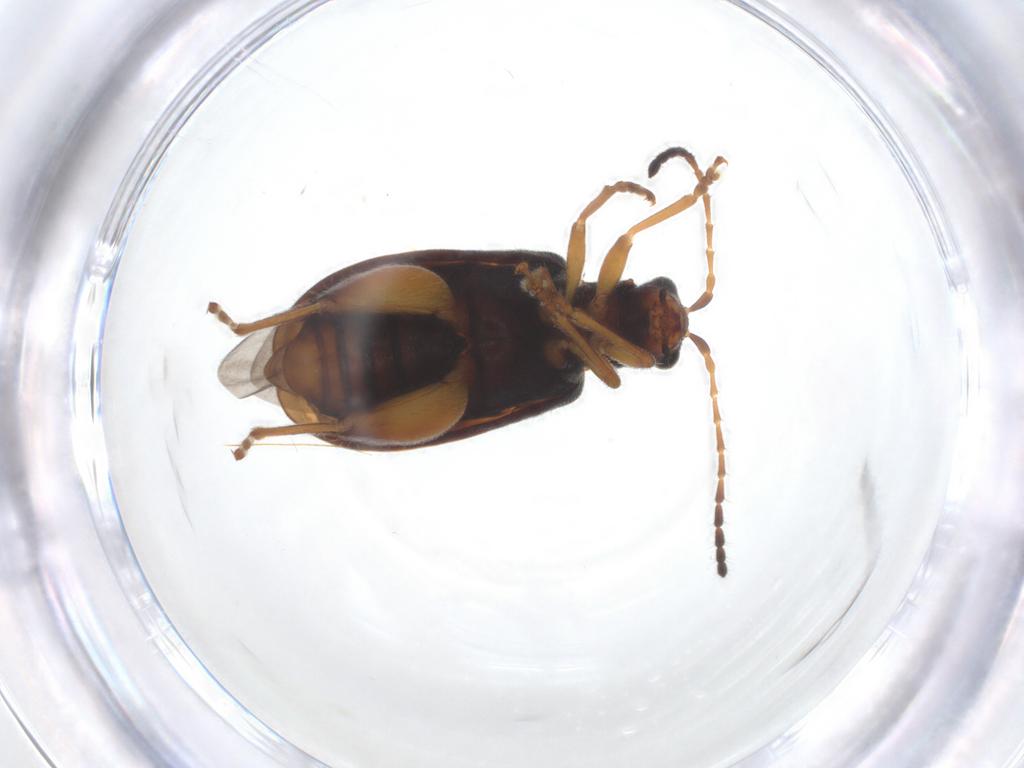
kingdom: Animalia
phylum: Arthropoda
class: Insecta
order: Coleoptera
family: Chrysomelidae
